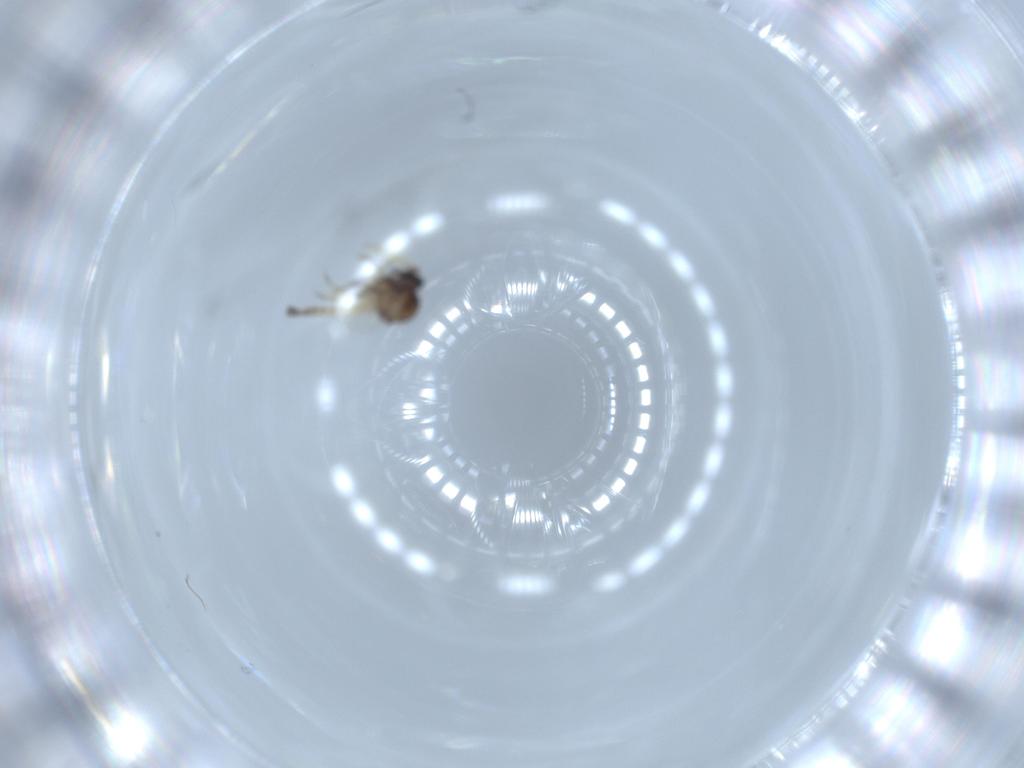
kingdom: Animalia
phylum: Arthropoda
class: Insecta
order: Diptera
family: Ceratopogonidae
